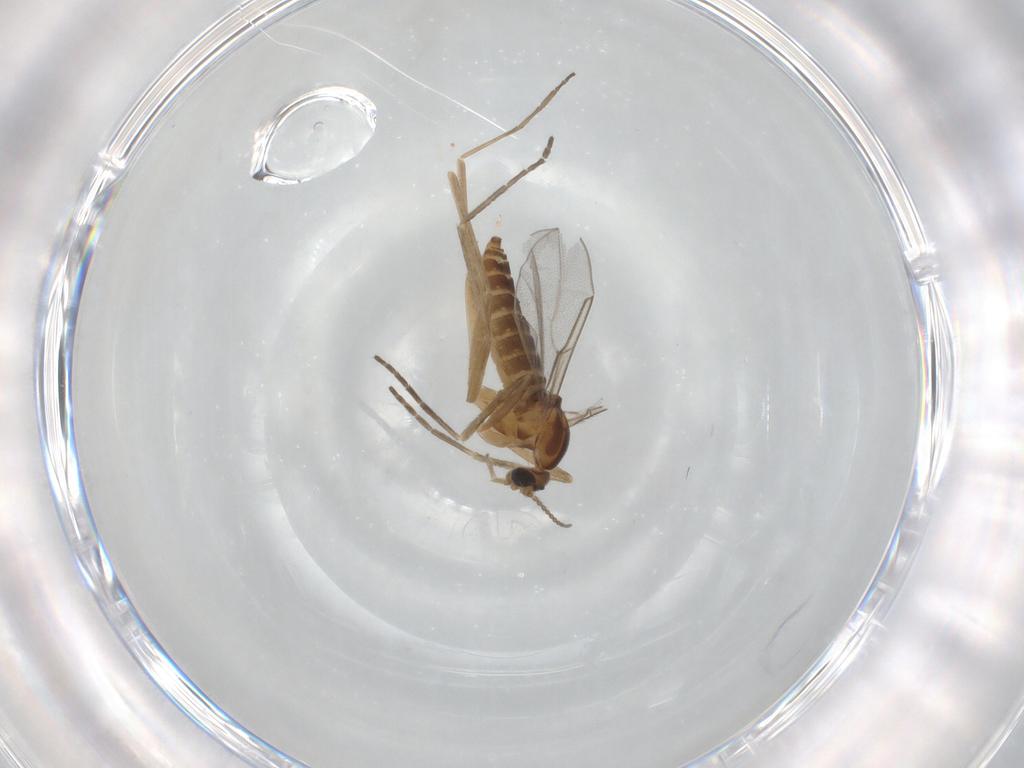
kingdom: Animalia
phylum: Arthropoda
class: Insecta
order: Diptera
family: Cecidomyiidae
